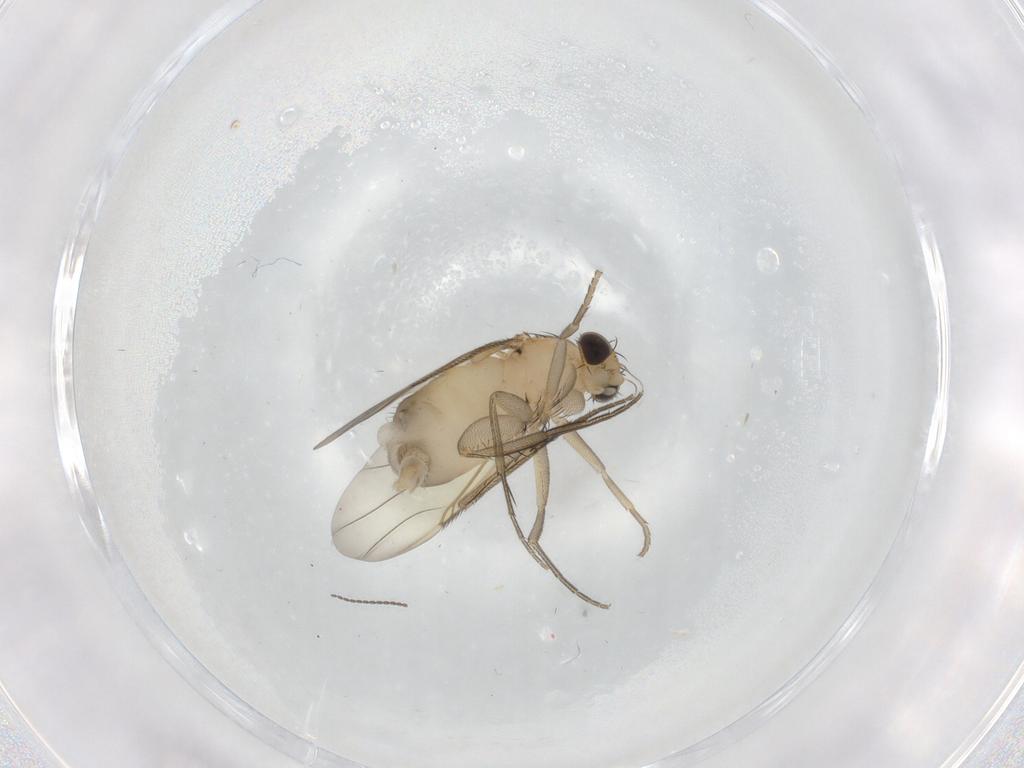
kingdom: Animalia
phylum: Arthropoda
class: Insecta
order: Diptera
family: Phoridae
